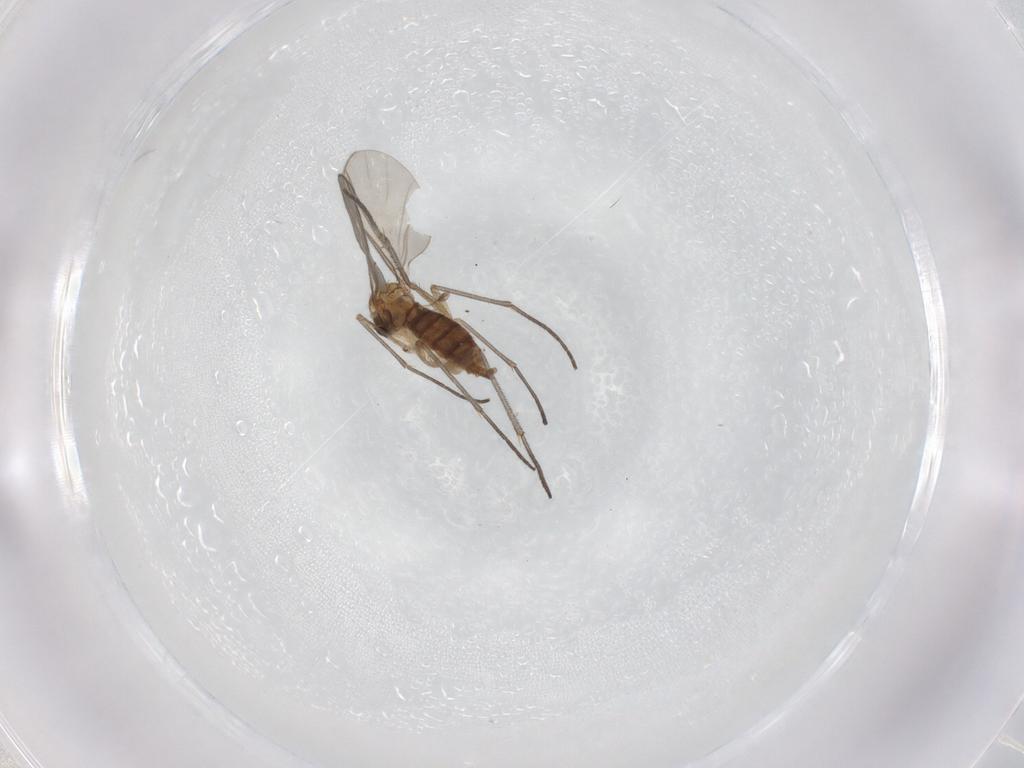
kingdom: Animalia
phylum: Arthropoda
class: Insecta
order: Diptera
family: Sciaridae
